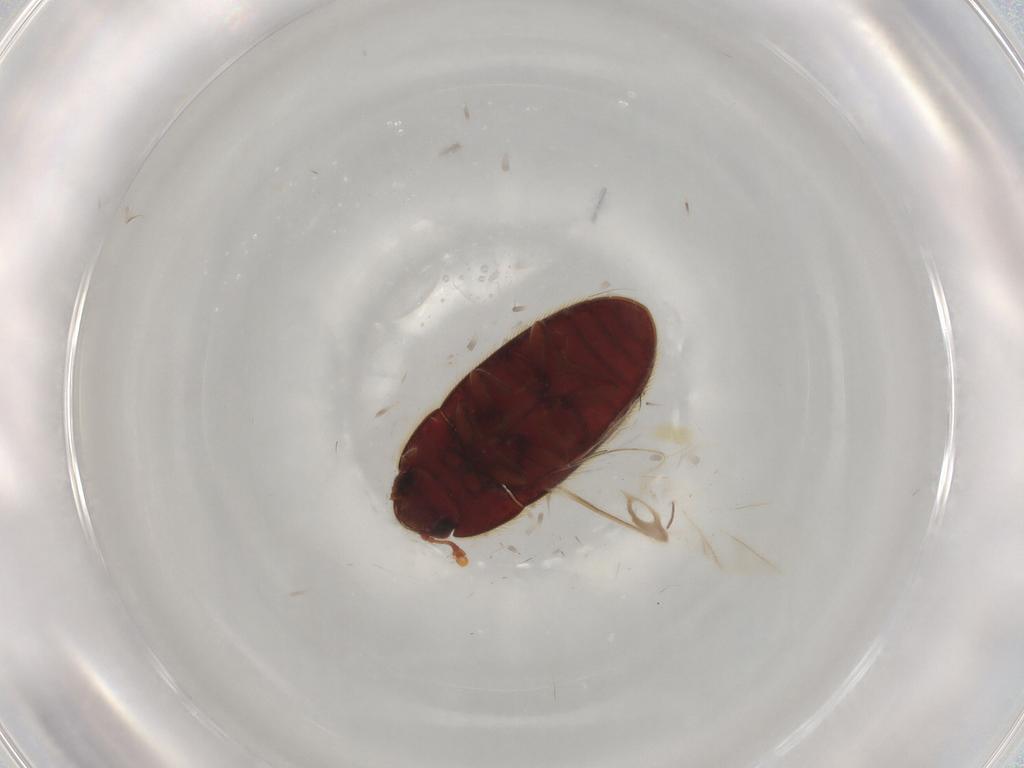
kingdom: Animalia
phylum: Arthropoda
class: Insecta
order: Coleoptera
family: Biphyllidae
